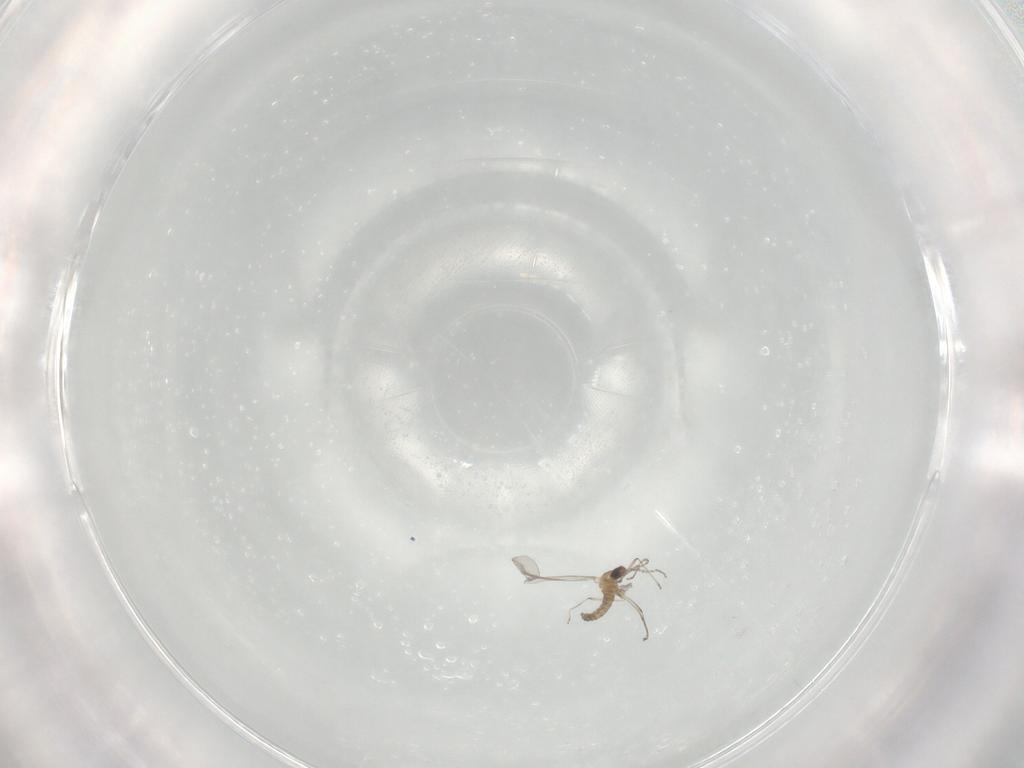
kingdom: Animalia
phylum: Arthropoda
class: Insecta
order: Diptera
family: Cecidomyiidae
